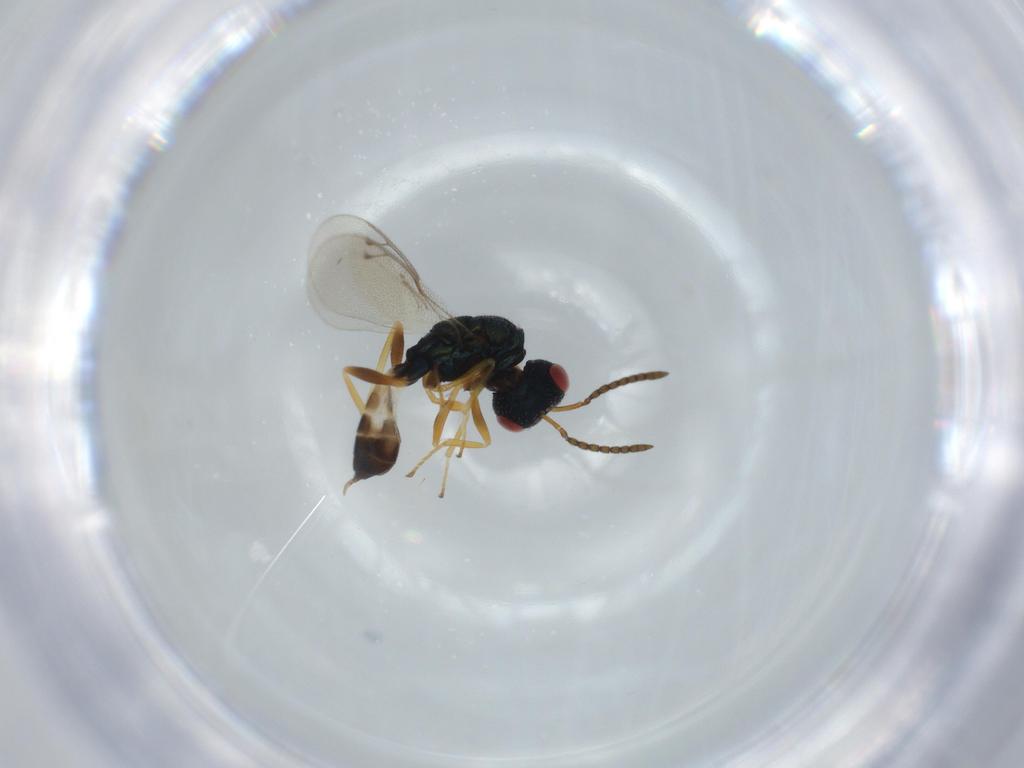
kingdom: Animalia
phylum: Arthropoda
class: Insecta
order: Hymenoptera
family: Pteromalidae
